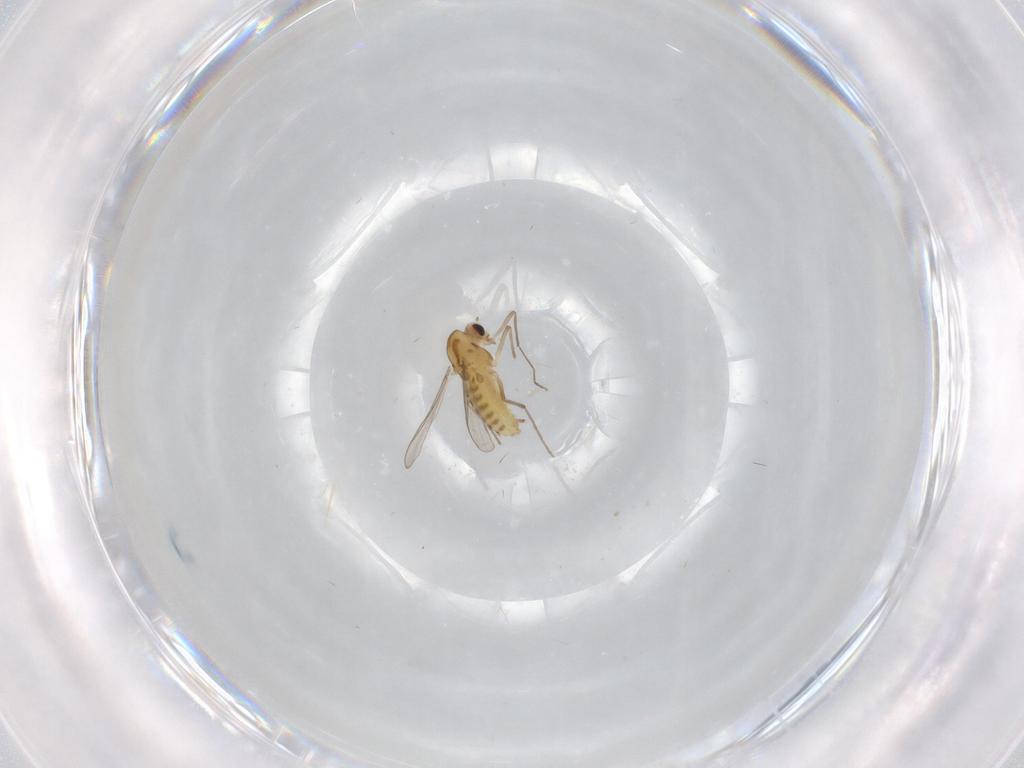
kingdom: Animalia
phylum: Arthropoda
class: Insecta
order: Diptera
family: Chironomidae
